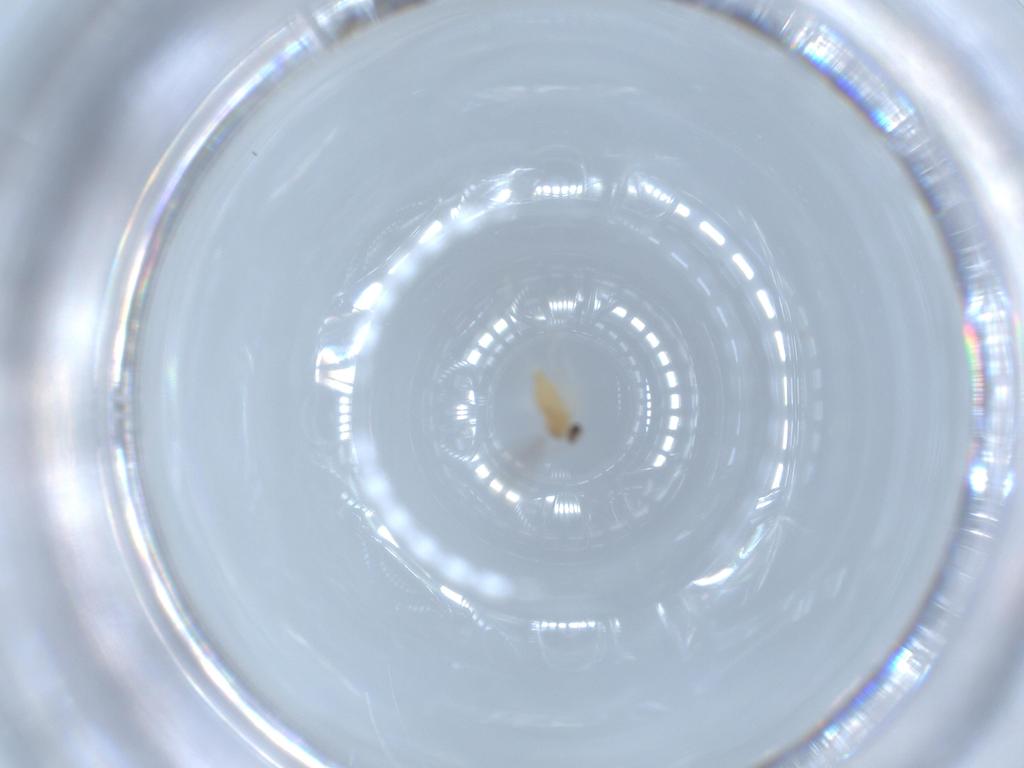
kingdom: Animalia
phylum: Arthropoda
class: Insecta
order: Diptera
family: Cecidomyiidae
